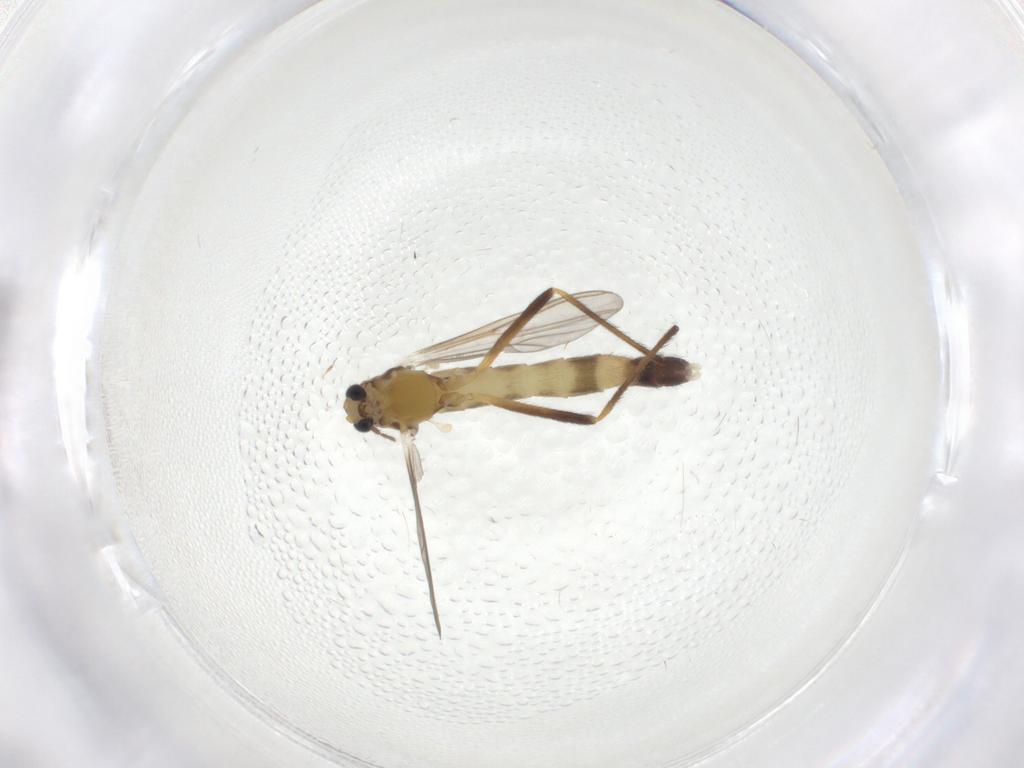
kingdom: Animalia
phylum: Arthropoda
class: Insecta
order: Diptera
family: Chironomidae
